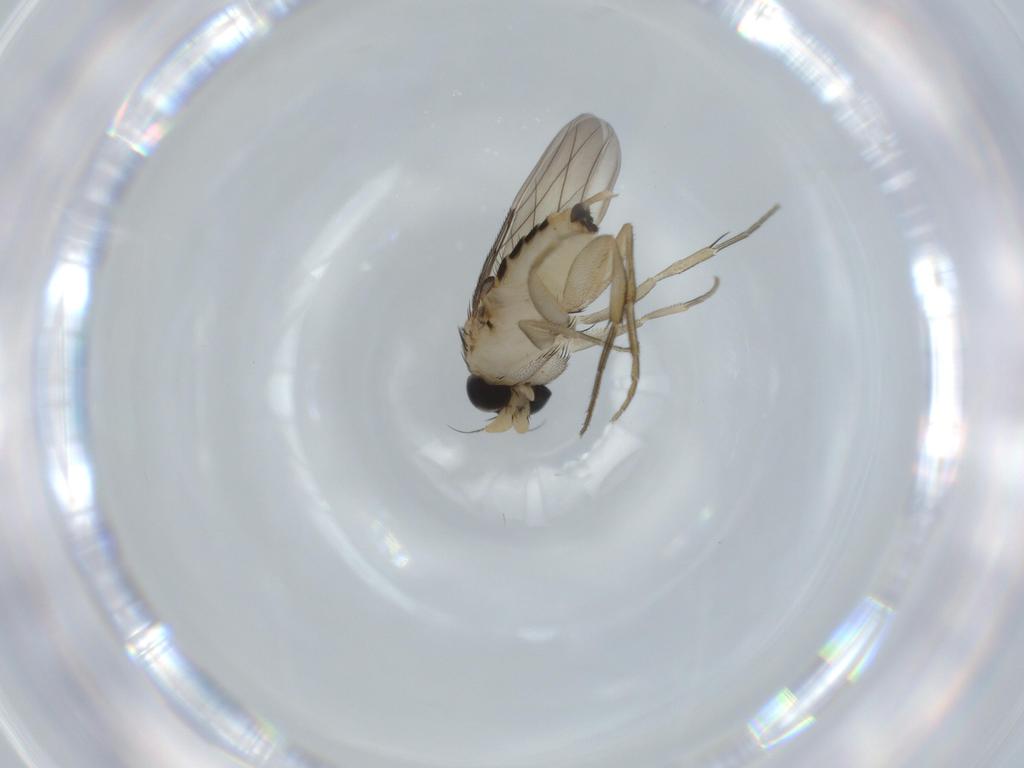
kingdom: Animalia
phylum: Arthropoda
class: Insecta
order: Diptera
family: Phoridae
